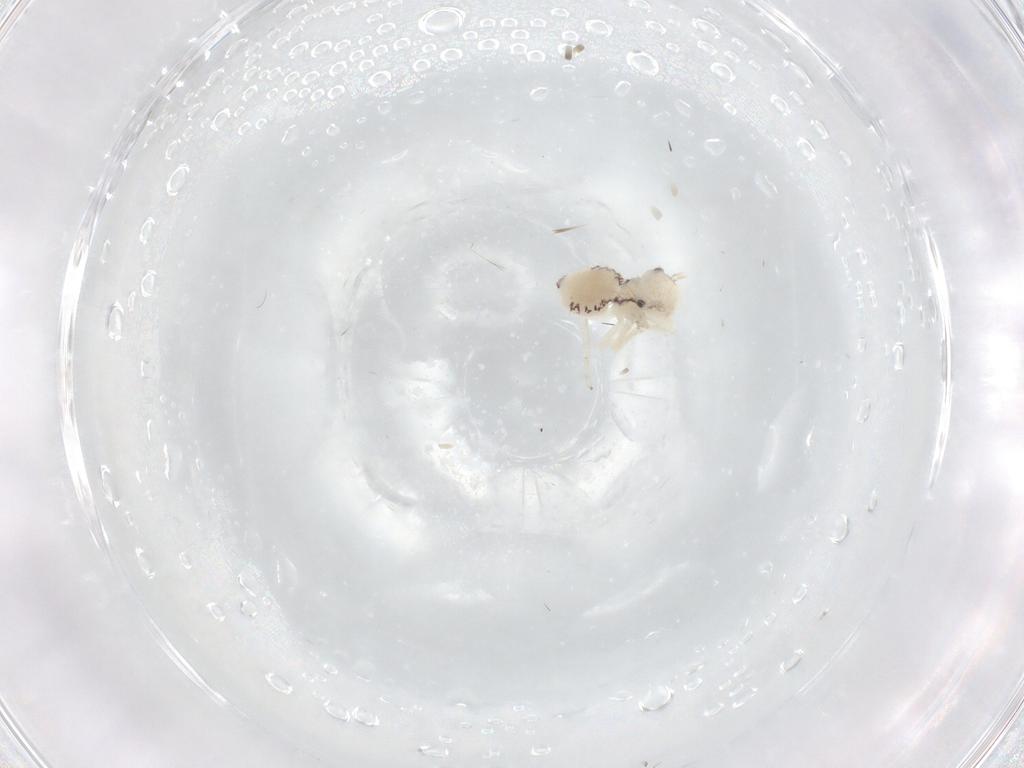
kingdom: Animalia
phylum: Arthropoda
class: Insecta
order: Psocodea
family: Caeciliusidae
